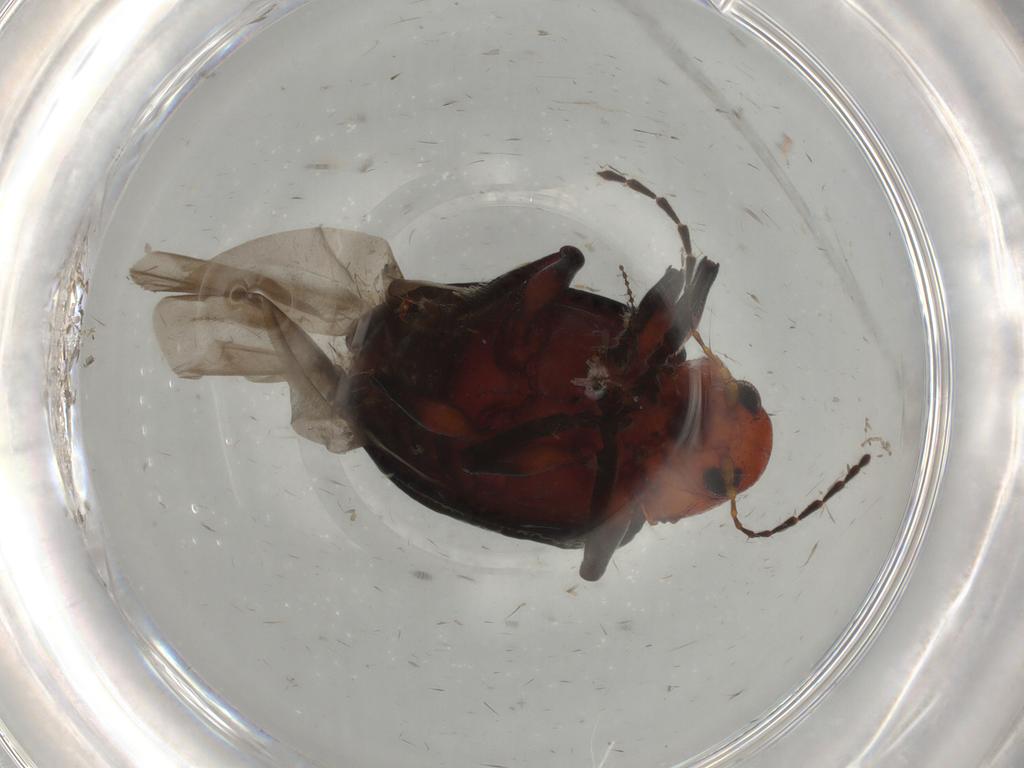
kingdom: Animalia
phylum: Arthropoda
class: Insecta
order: Coleoptera
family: Chrysomelidae
